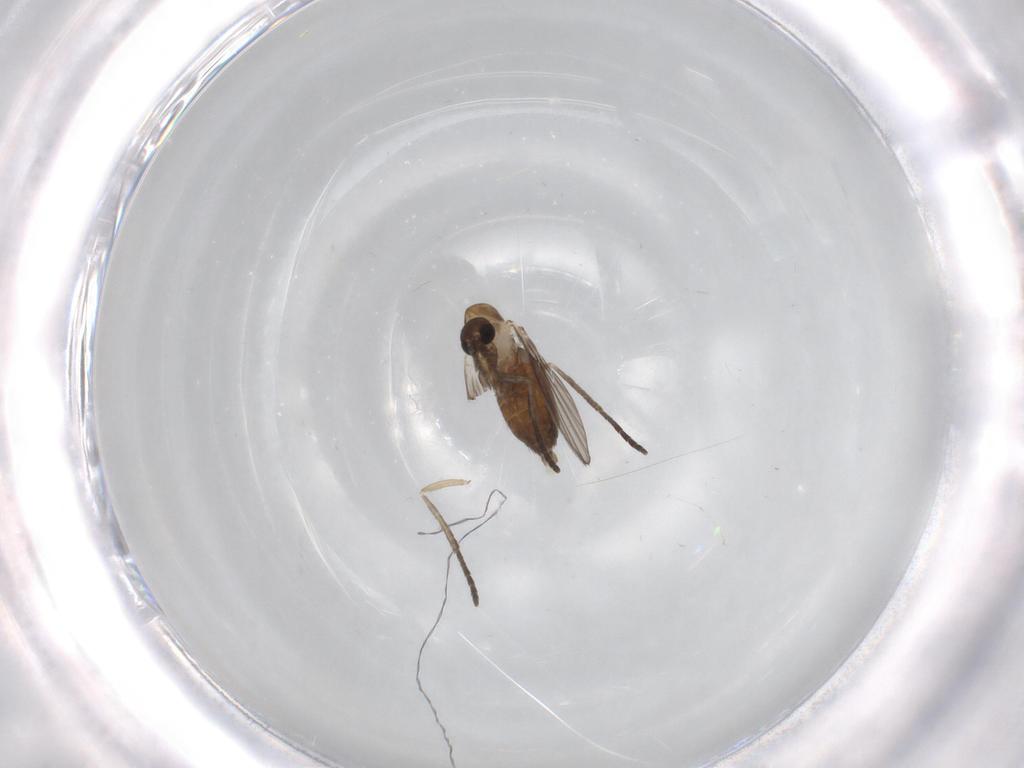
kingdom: Animalia
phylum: Arthropoda
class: Insecta
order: Diptera
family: Psychodidae
